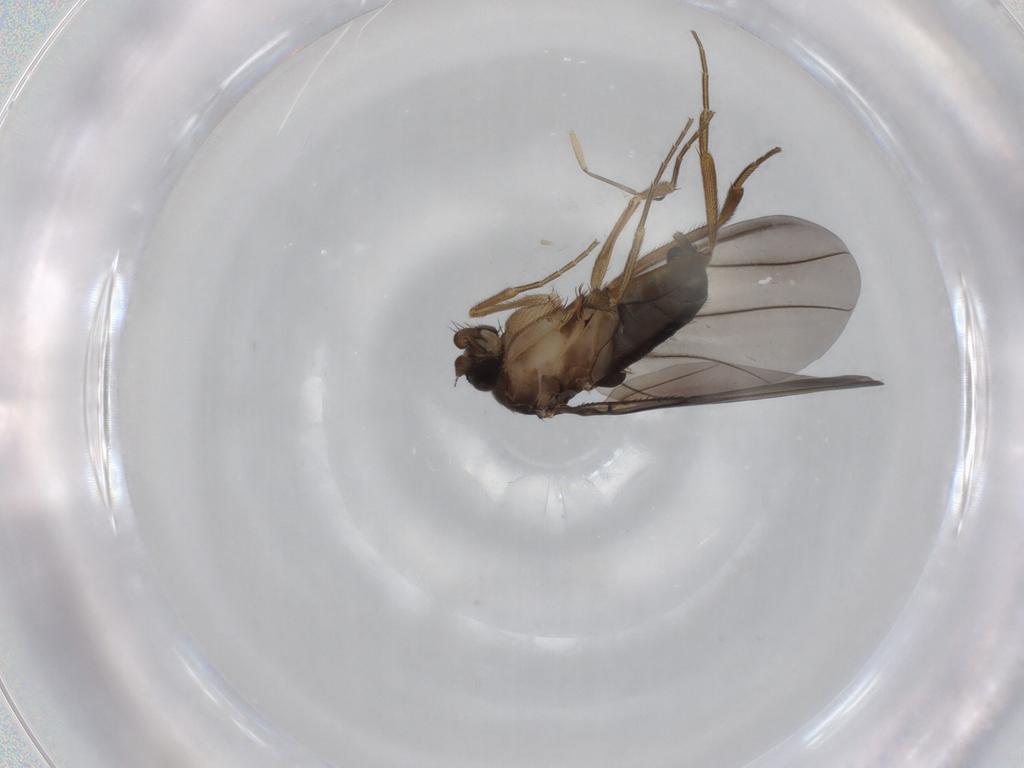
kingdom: Animalia
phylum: Arthropoda
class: Insecta
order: Diptera
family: Phoridae
